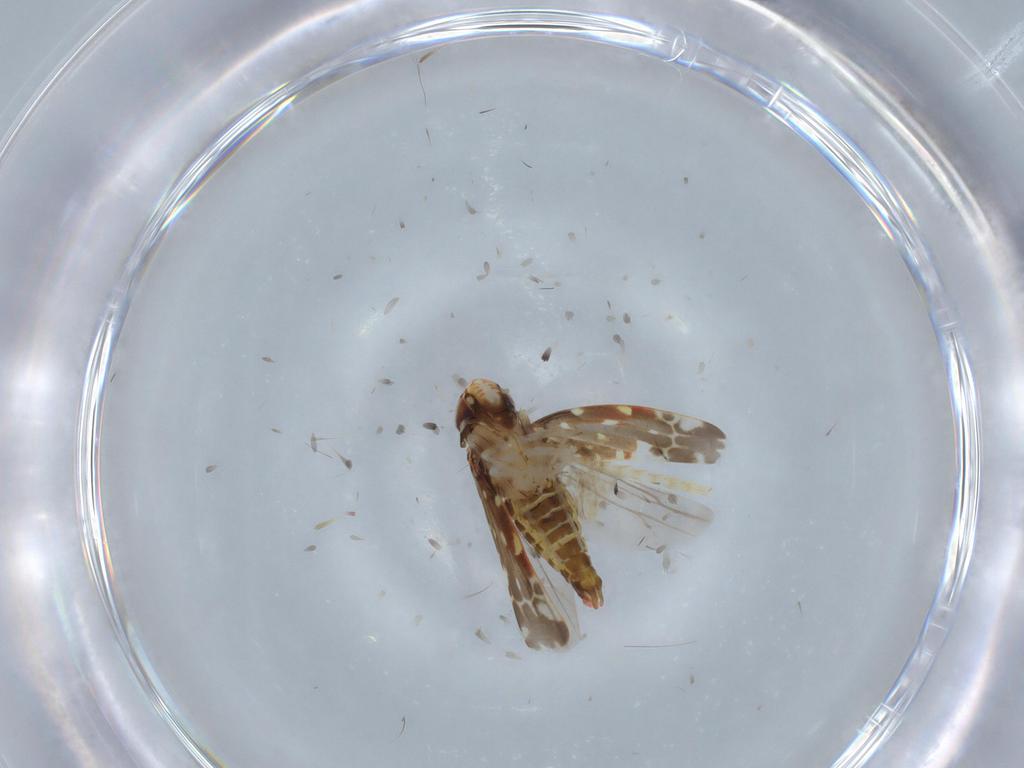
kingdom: Animalia
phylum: Arthropoda
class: Insecta
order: Hemiptera
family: Cicadellidae
